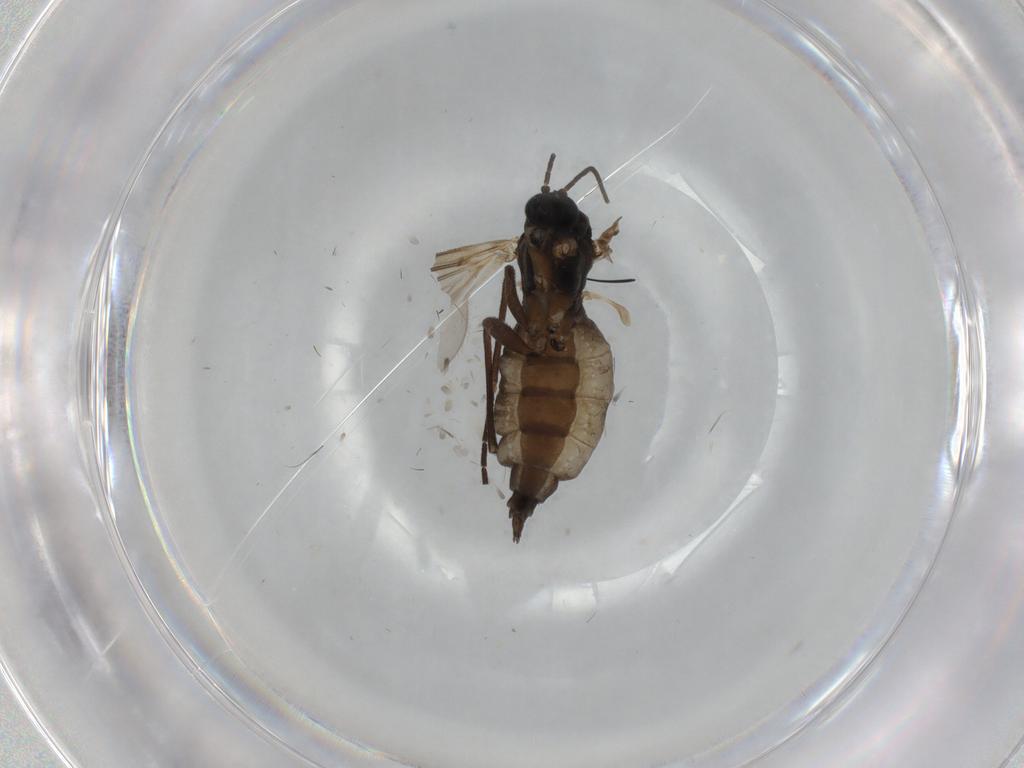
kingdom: Animalia
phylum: Arthropoda
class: Insecta
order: Diptera
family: Sciaridae
